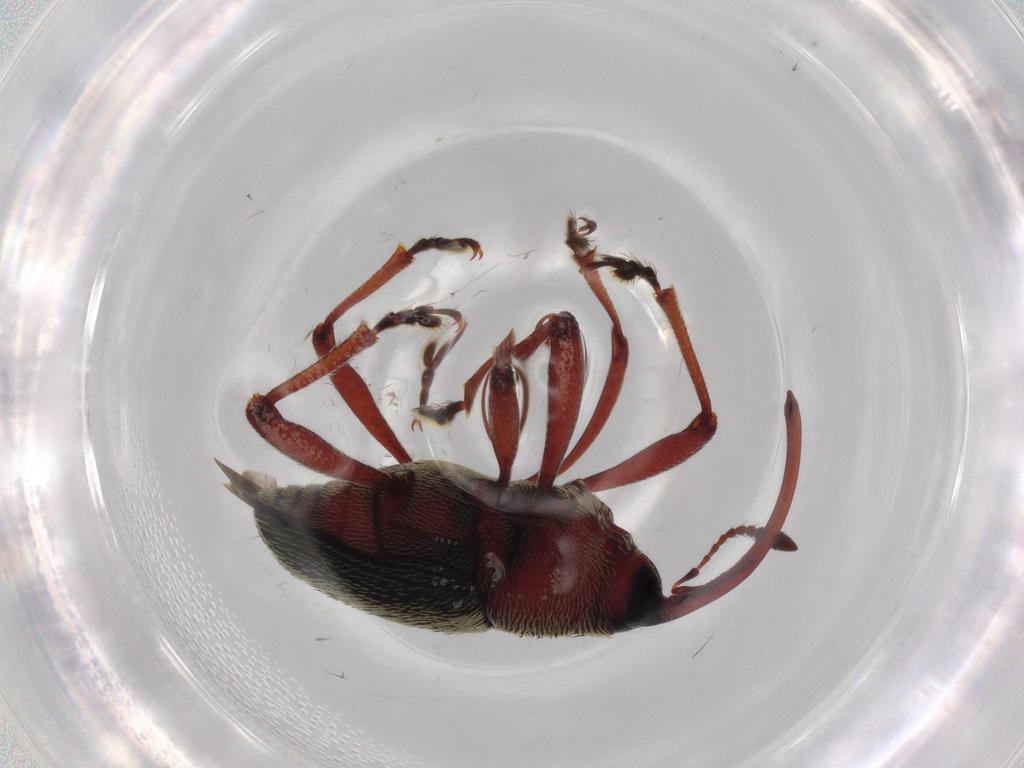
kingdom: Animalia
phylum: Arthropoda
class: Insecta
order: Coleoptera
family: Curculionidae
